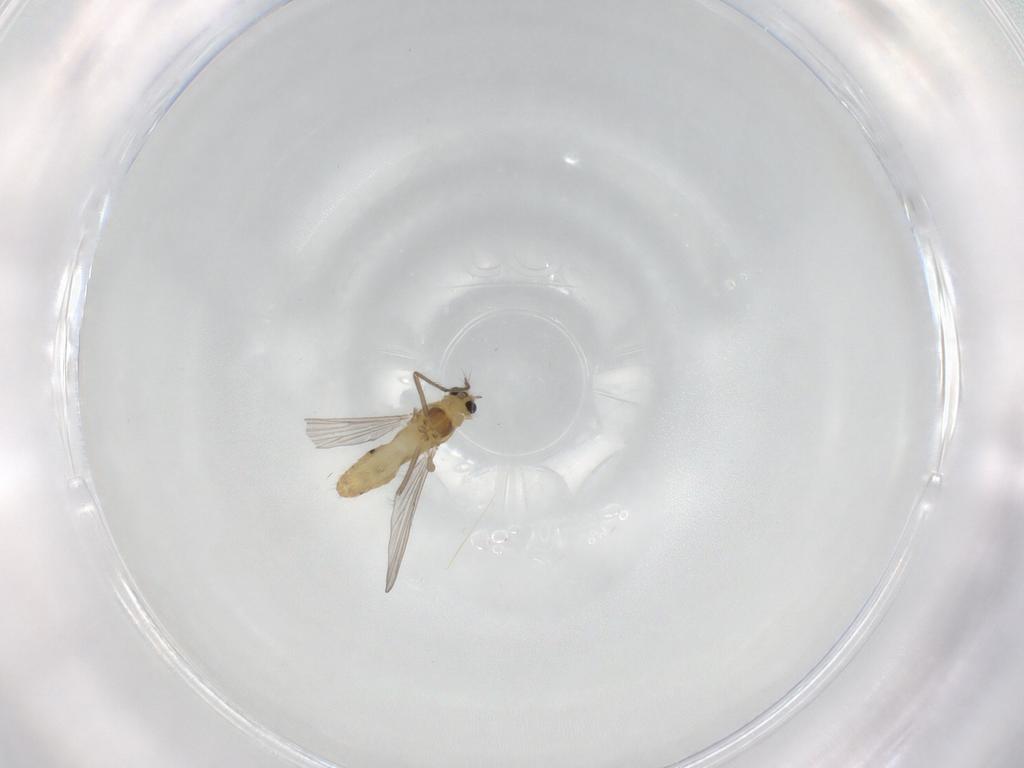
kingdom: Animalia
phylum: Arthropoda
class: Insecta
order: Diptera
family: Chironomidae
